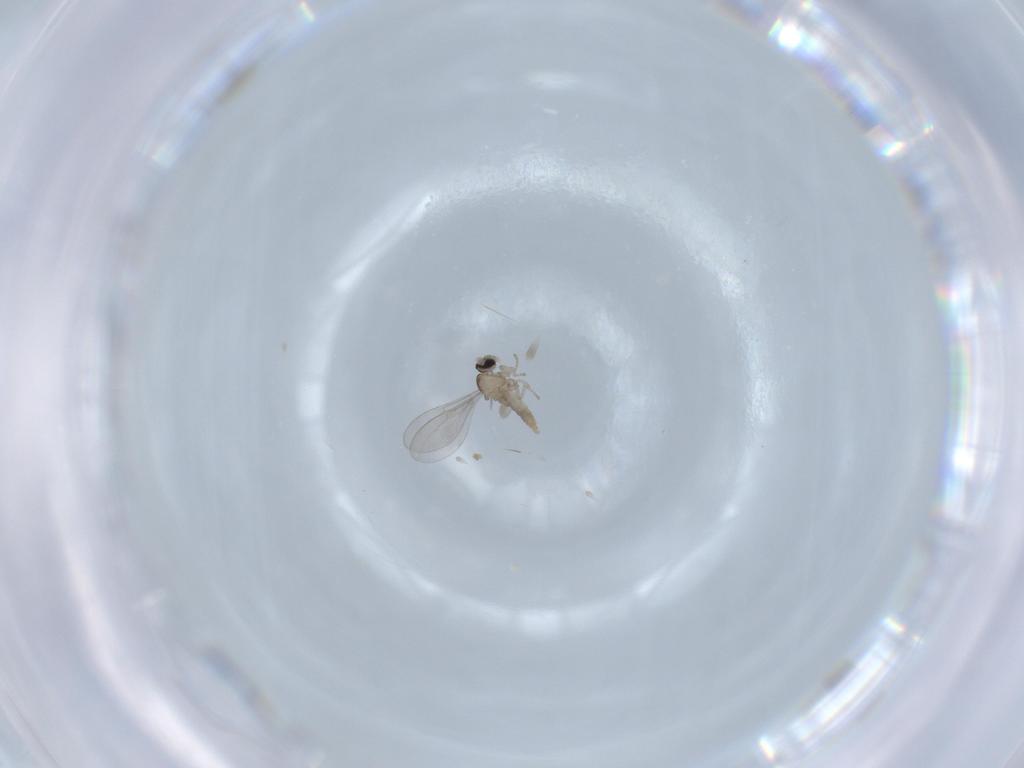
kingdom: Animalia
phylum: Arthropoda
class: Insecta
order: Diptera
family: Cecidomyiidae
